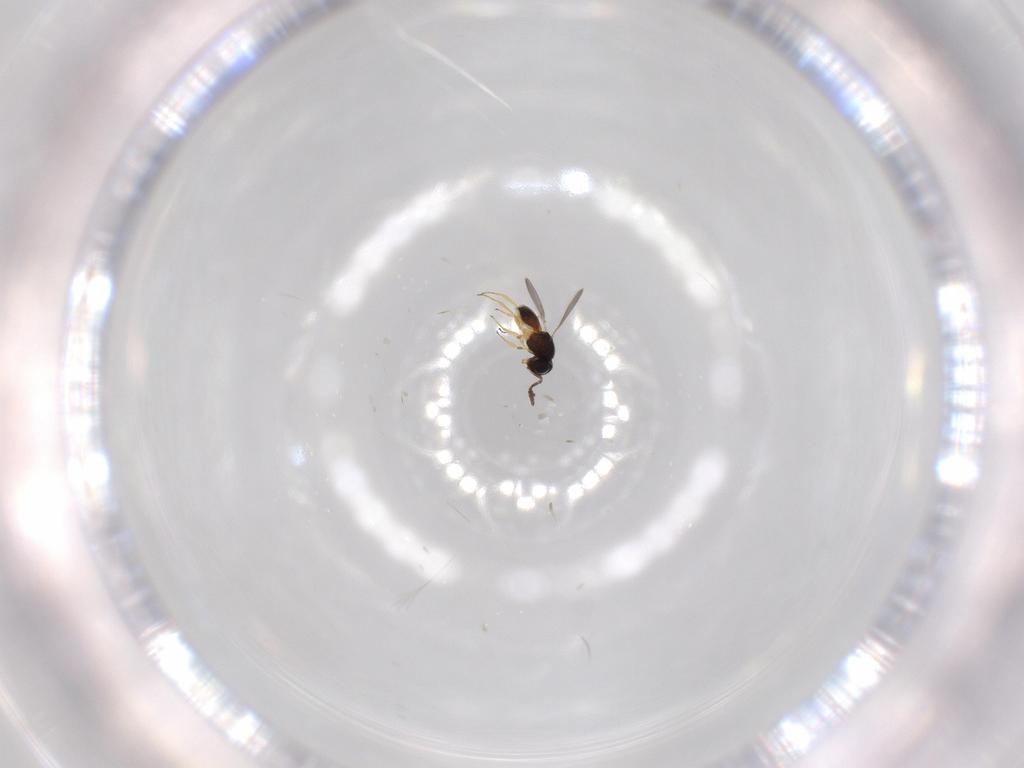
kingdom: Animalia
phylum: Arthropoda
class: Insecta
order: Hymenoptera
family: Scelionidae
